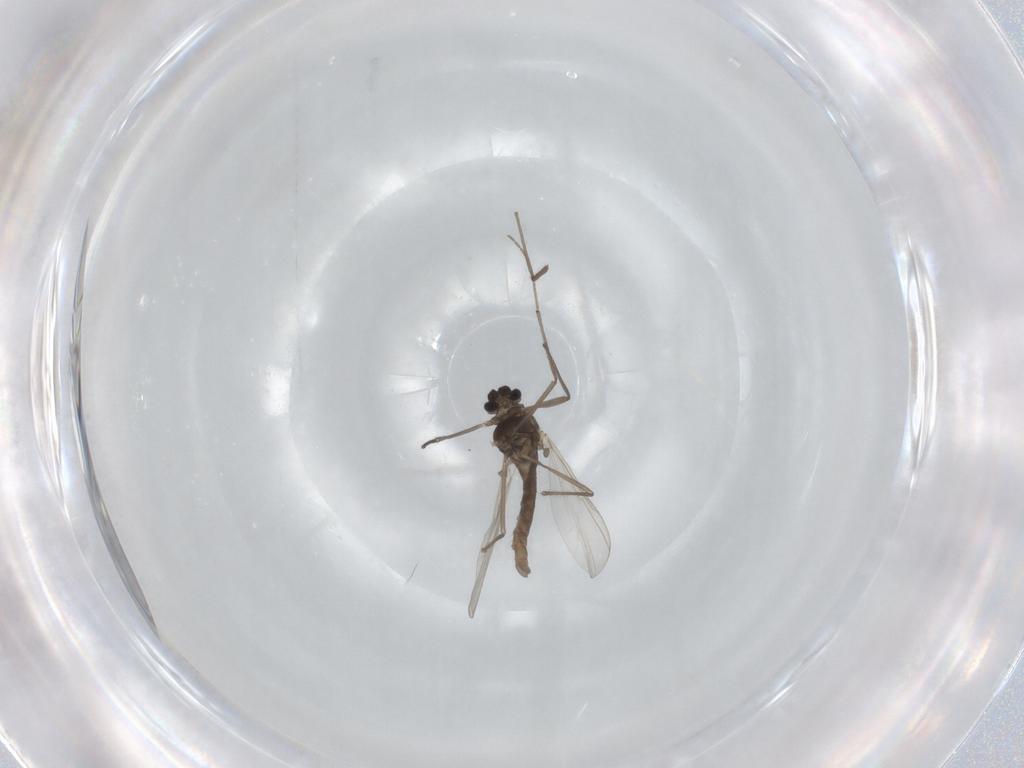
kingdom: Animalia
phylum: Arthropoda
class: Insecta
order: Diptera
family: Chironomidae
